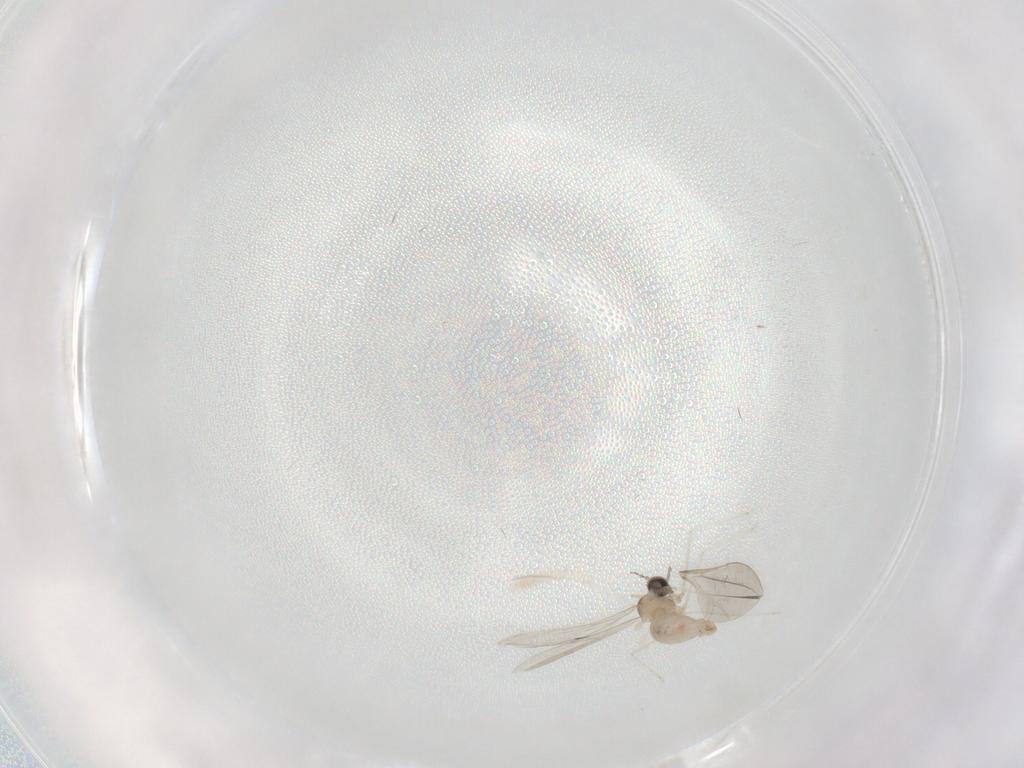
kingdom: Animalia
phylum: Arthropoda
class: Insecta
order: Diptera
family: Cecidomyiidae
